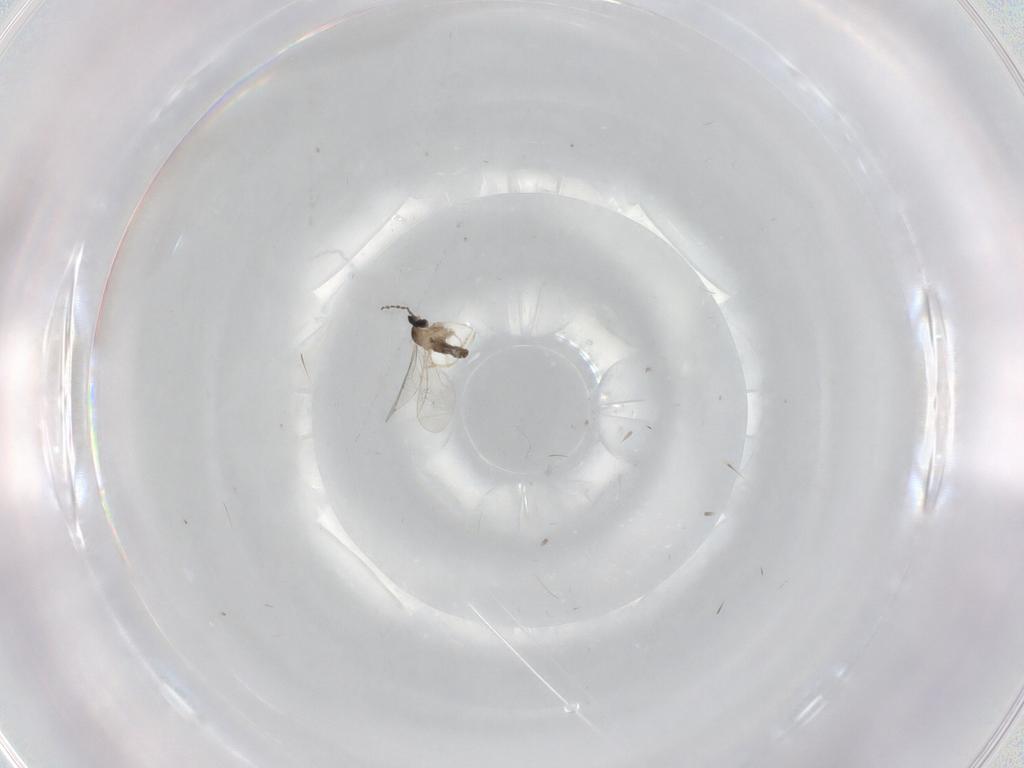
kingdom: Animalia
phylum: Arthropoda
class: Insecta
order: Diptera
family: Cecidomyiidae
